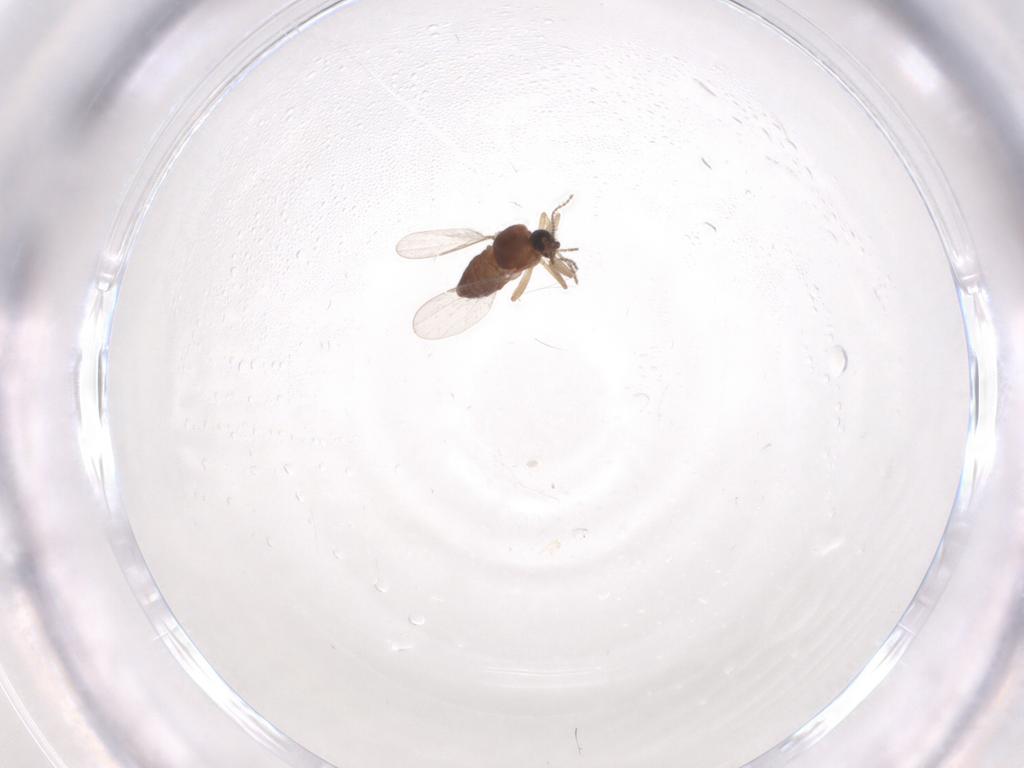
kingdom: Animalia
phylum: Arthropoda
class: Insecta
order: Diptera
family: Ceratopogonidae
